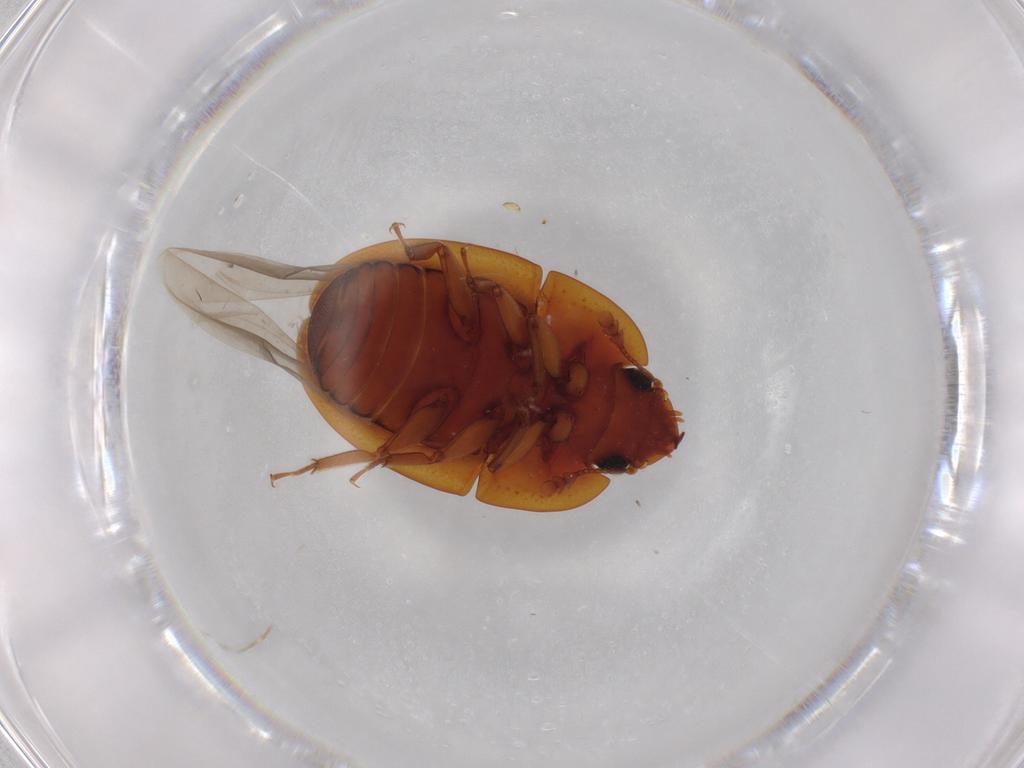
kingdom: Animalia
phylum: Arthropoda
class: Insecta
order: Coleoptera
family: Nitidulidae
